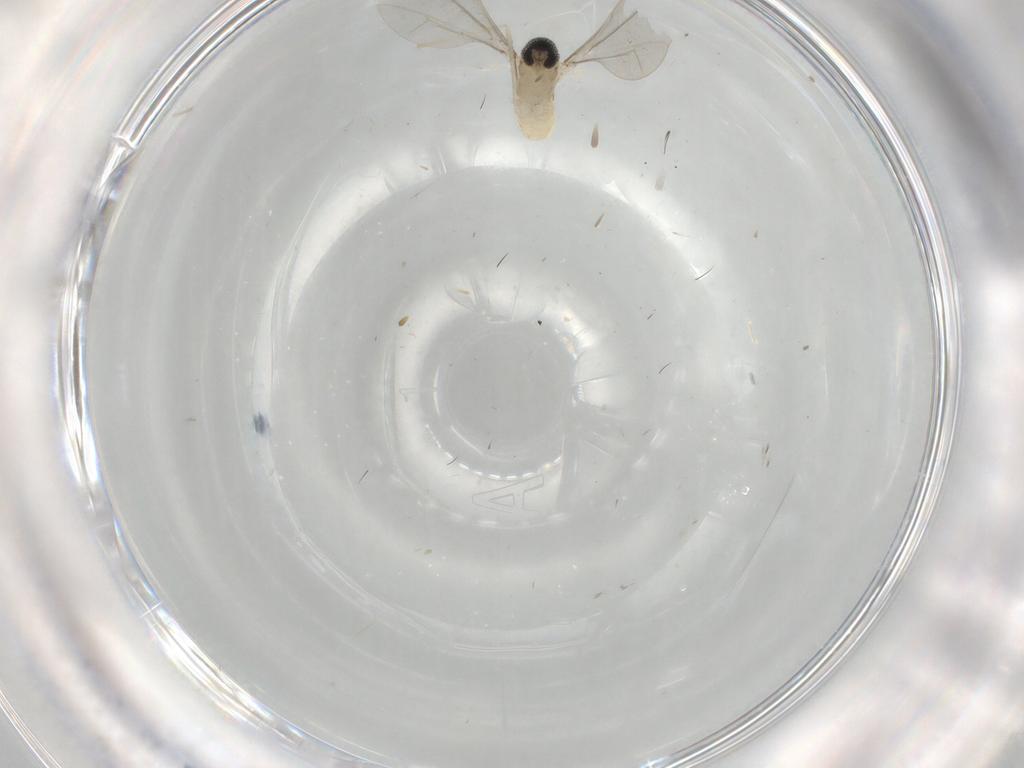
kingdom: Animalia
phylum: Arthropoda
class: Insecta
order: Diptera
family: Cecidomyiidae
